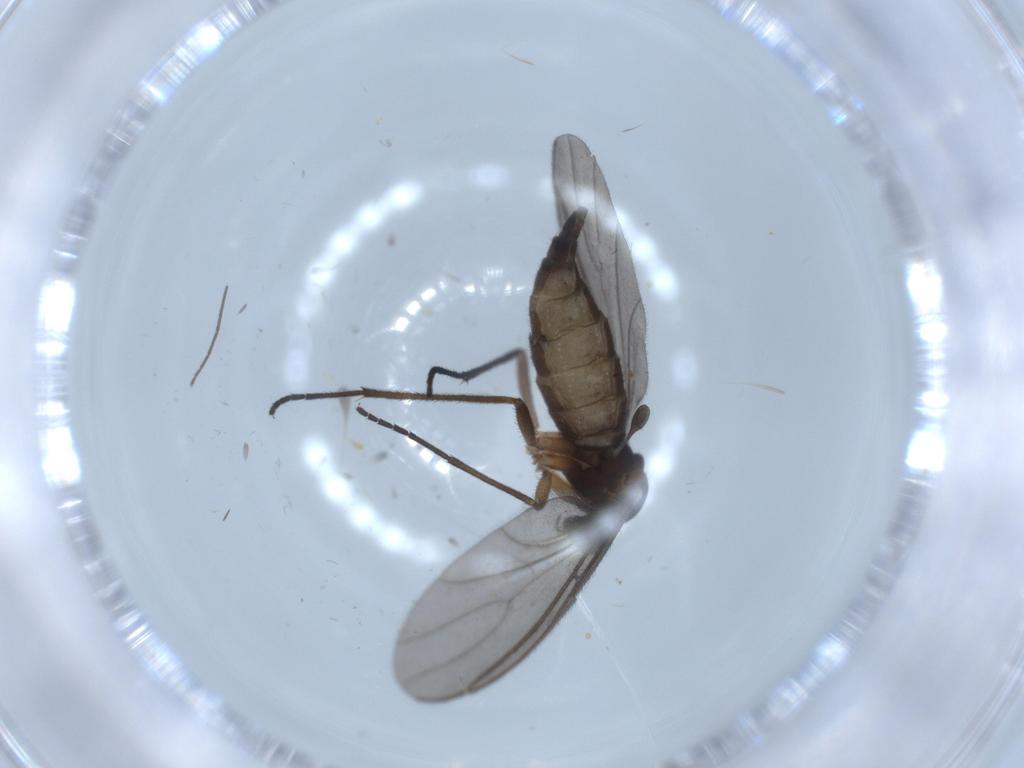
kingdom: Animalia
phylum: Arthropoda
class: Insecta
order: Diptera
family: Sciaridae
